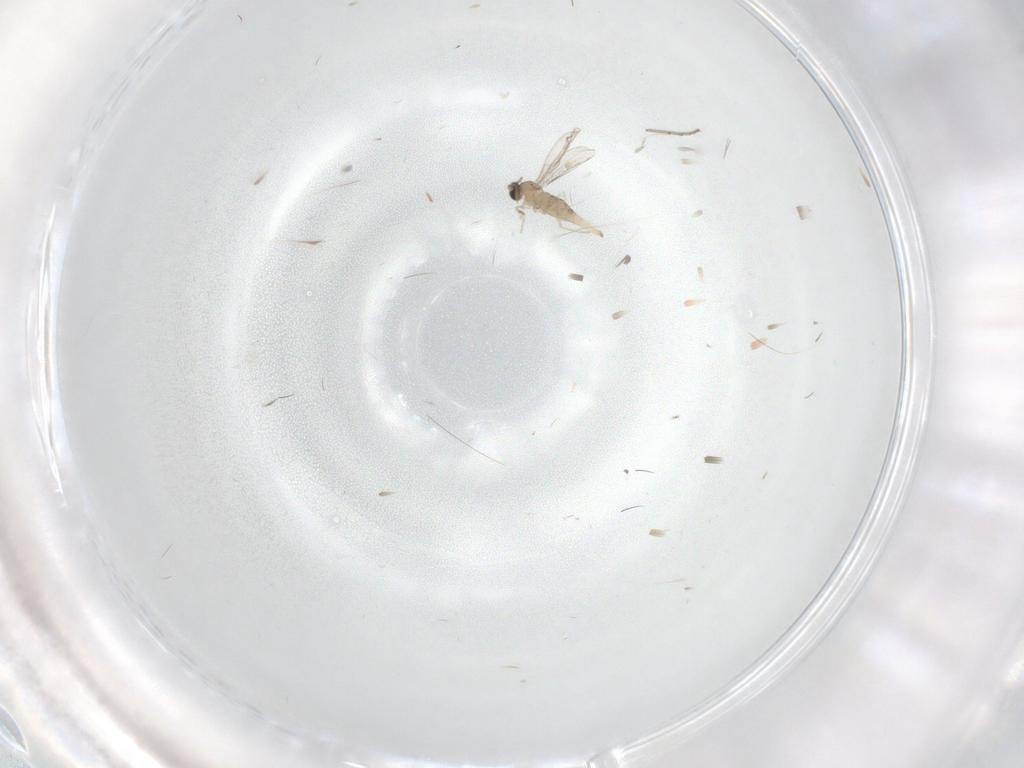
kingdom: Animalia
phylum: Arthropoda
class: Insecta
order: Diptera
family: Cecidomyiidae
